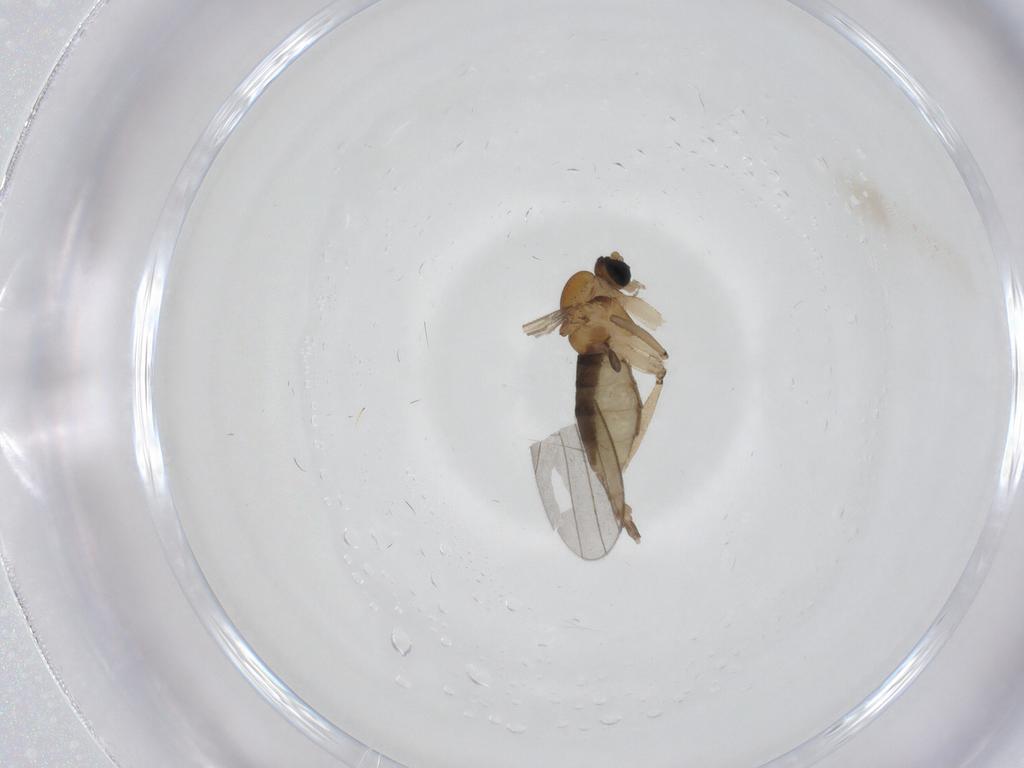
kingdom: Animalia
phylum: Arthropoda
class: Insecta
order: Diptera
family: Sciaridae
